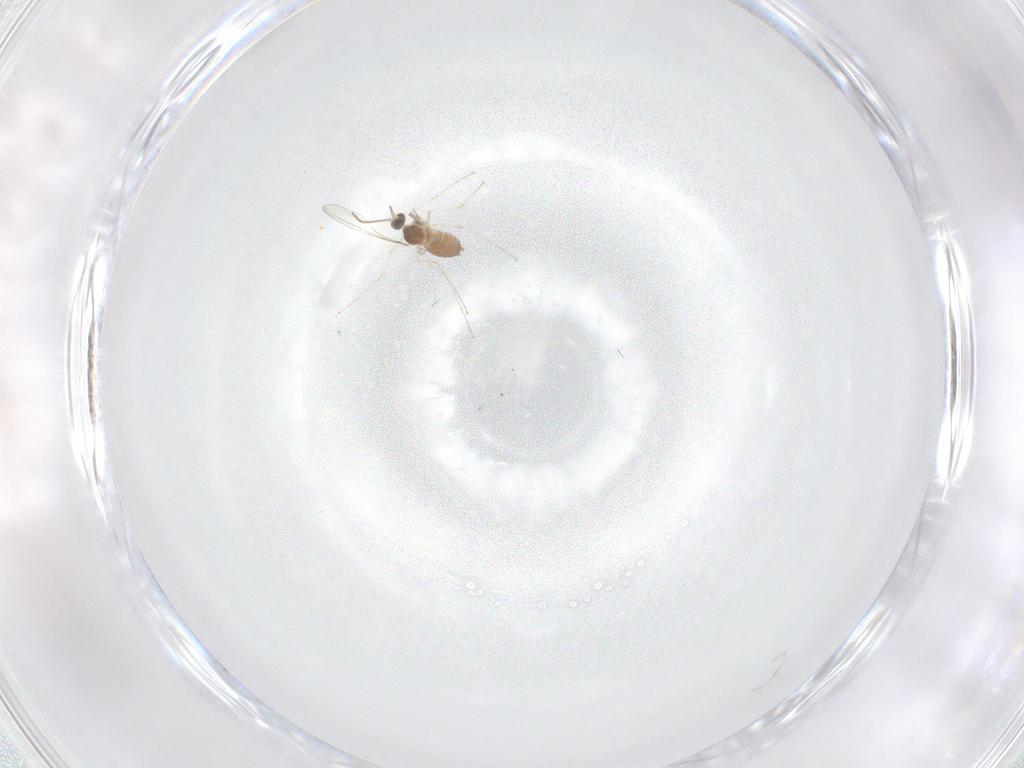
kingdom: Animalia
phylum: Arthropoda
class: Insecta
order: Diptera
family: Cecidomyiidae
